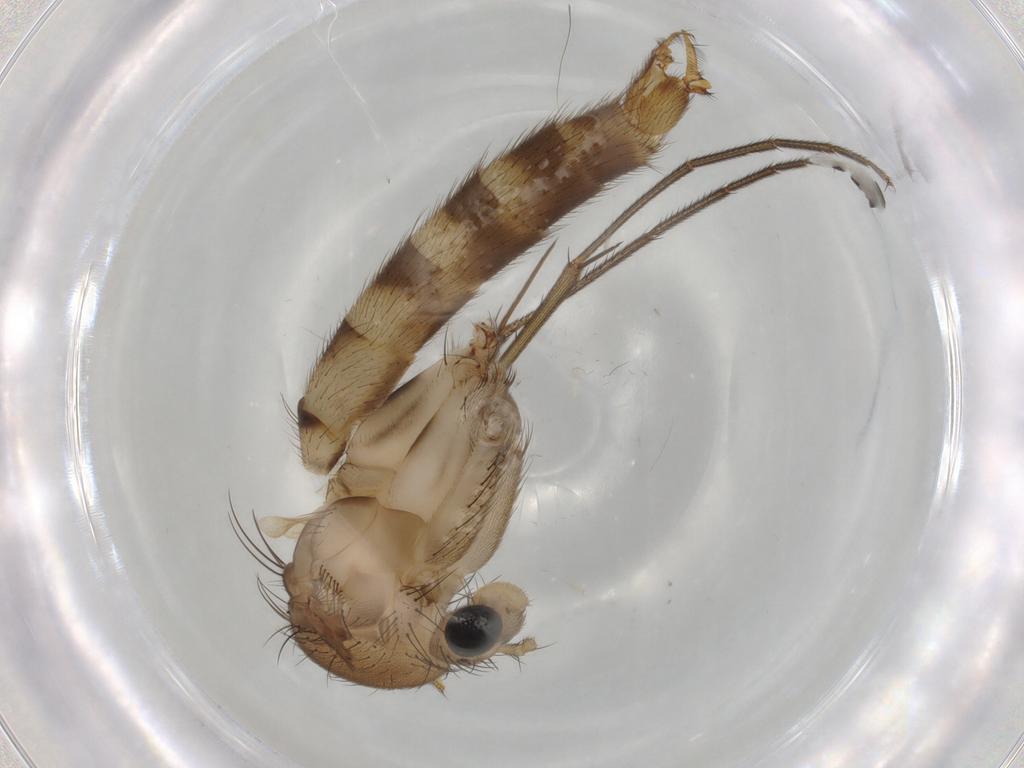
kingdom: Animalia
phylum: Arthropoda
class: Insecta
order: Diptera
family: Hybotidae
